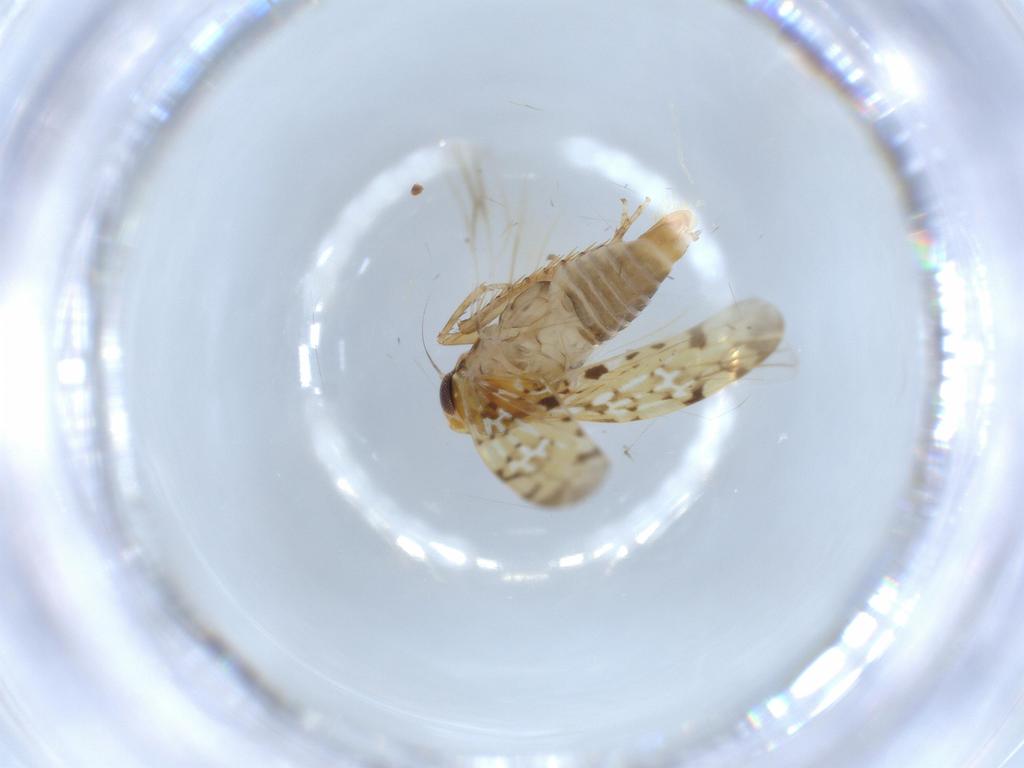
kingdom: Animalia
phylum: Arthropoda
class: Insecta
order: Hemiptera
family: Cicadellidae
